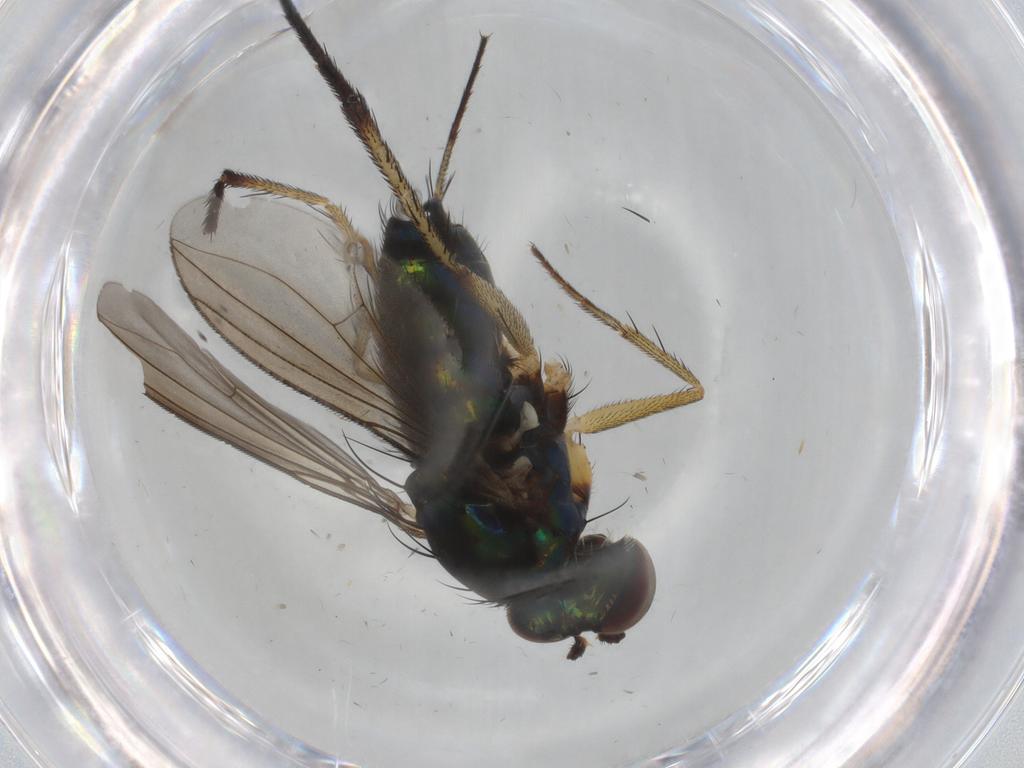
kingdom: Animalia
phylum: Arthropoda
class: Insecta
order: Diptera
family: Dolichopodidae
